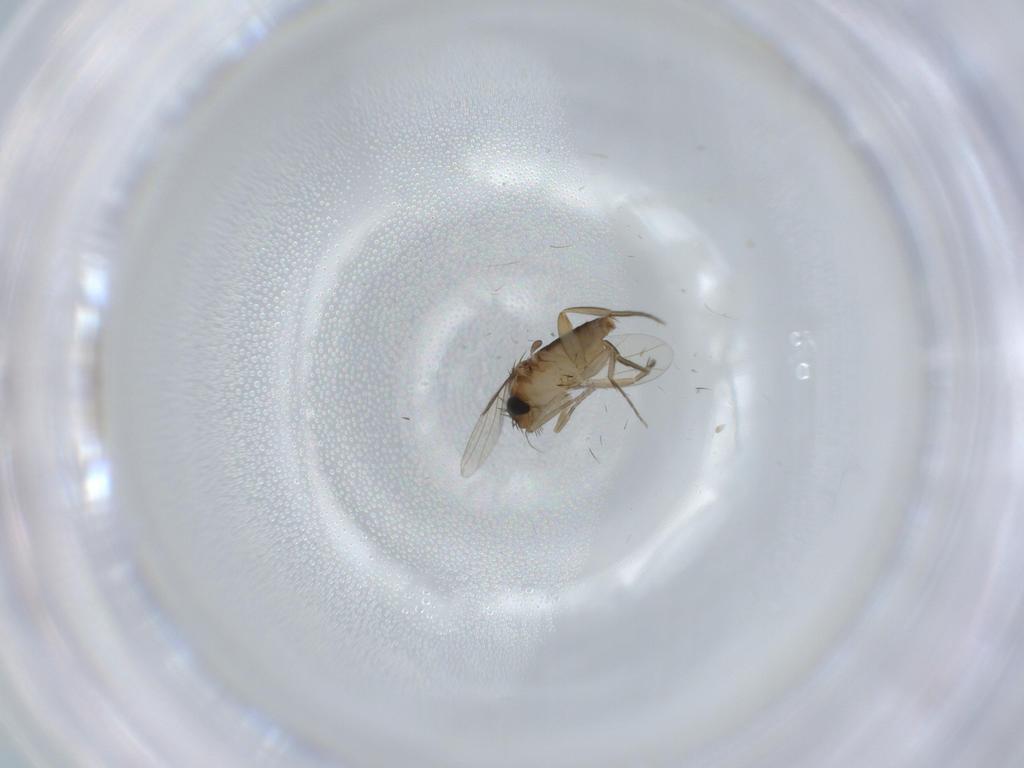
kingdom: Animalia
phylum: Arthropoda
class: Insecta
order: Diptera
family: Phoridae
